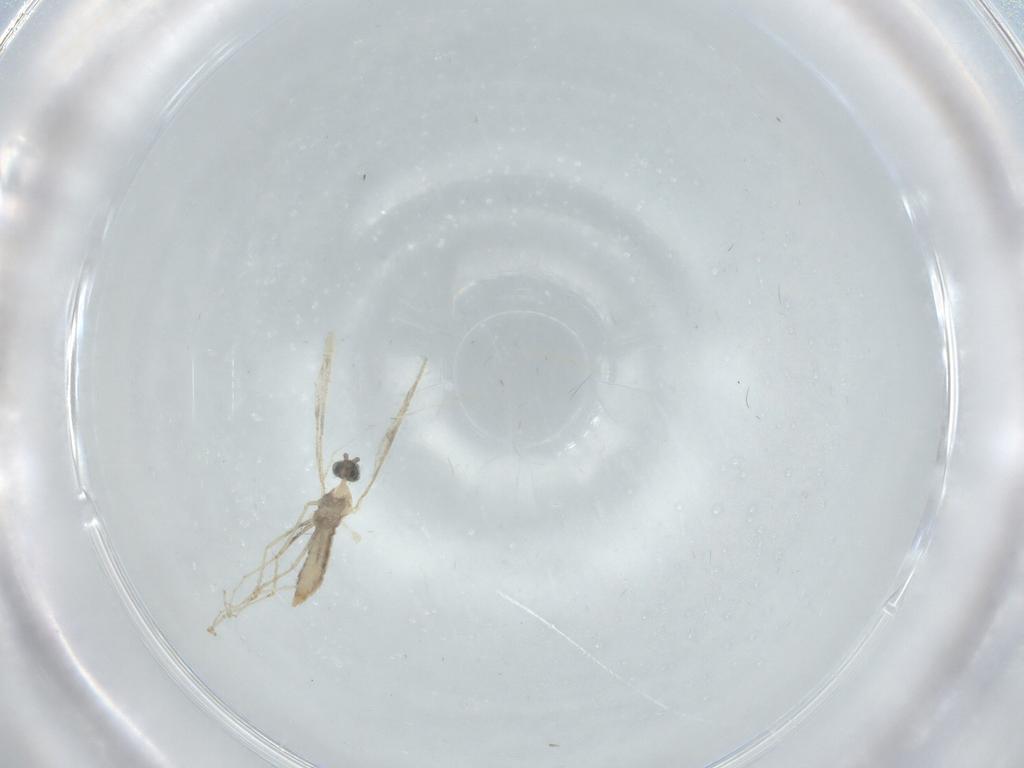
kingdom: Animalia
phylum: Arthropoda
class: Insecta
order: Diptera
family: Cecidomyiidae
